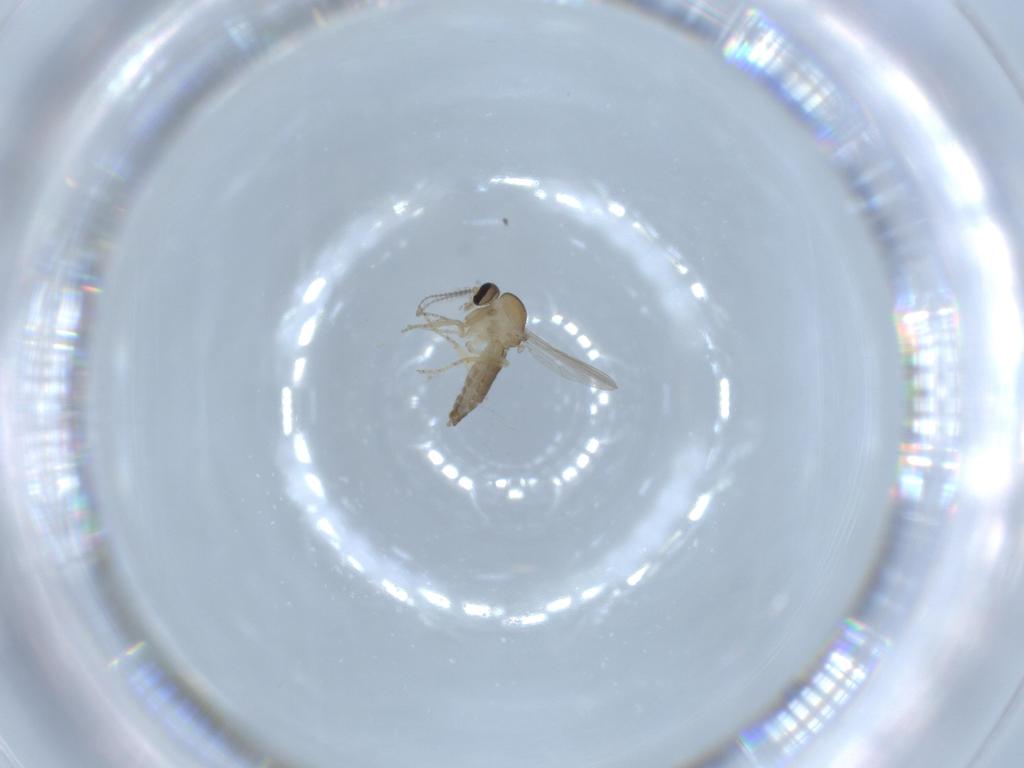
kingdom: Animalia
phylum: Arthropoda
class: Insecta
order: Diptera
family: Ceratopogonidae
